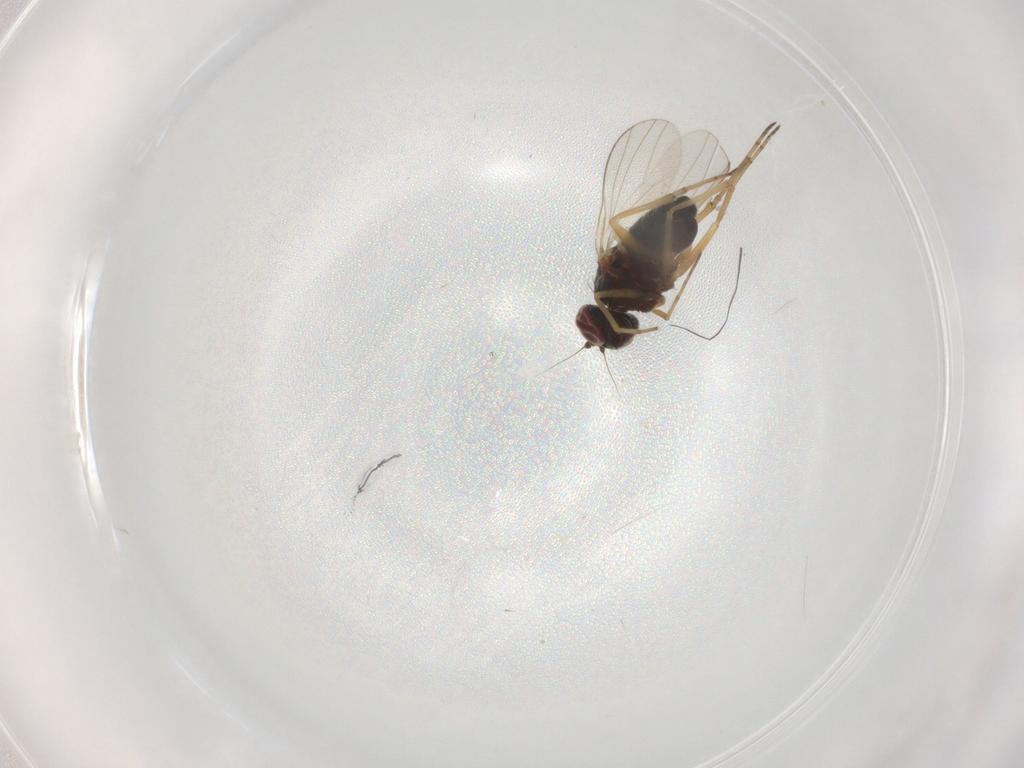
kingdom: Animalia
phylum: Arthropoda
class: Insecta
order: Diptera
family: Dolichopodidae
